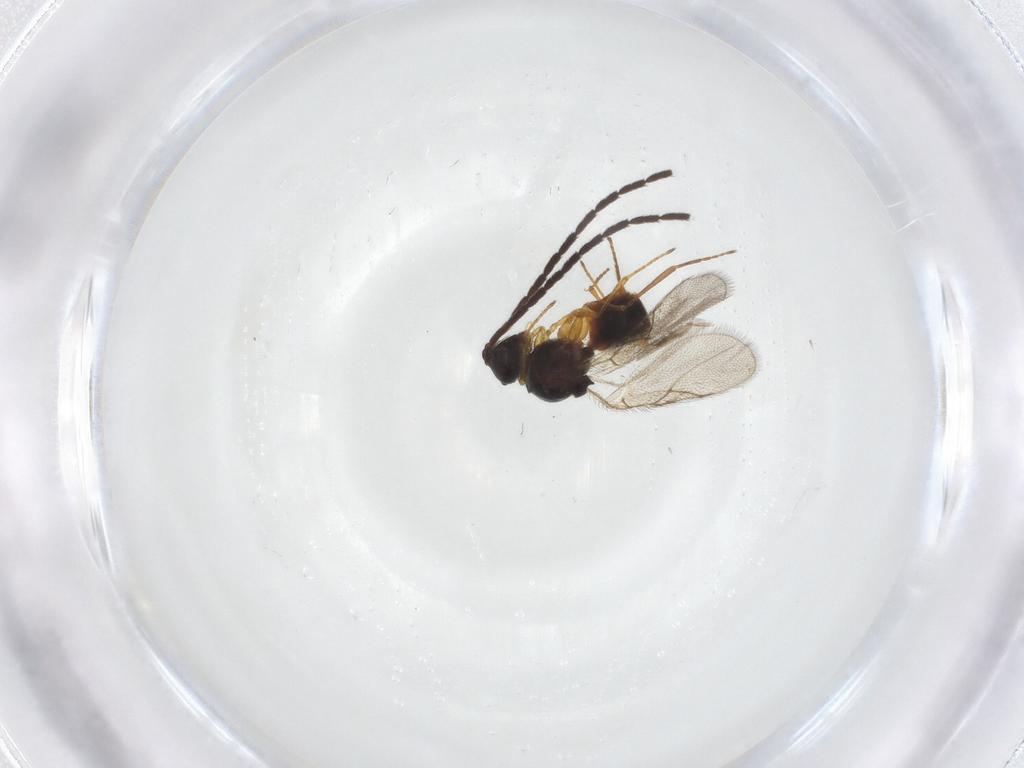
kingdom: Animalia
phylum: Arthropoda
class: Insecta
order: Hymenoptera
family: Figitidae
